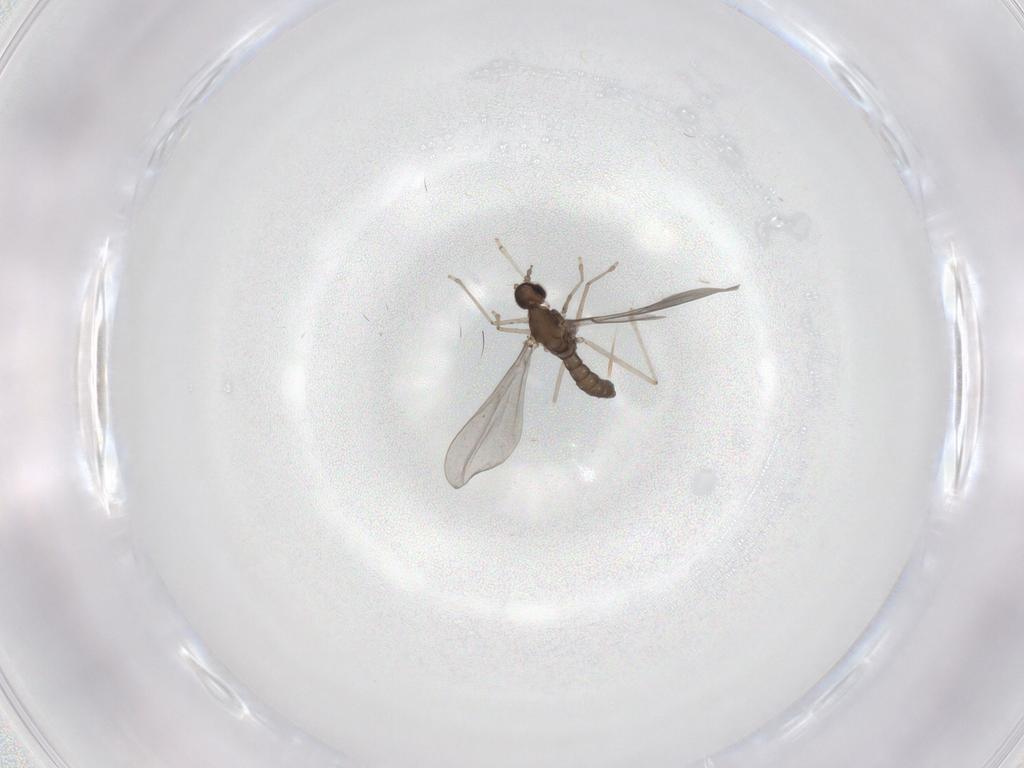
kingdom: Animalia
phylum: Arthropoda
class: Insecta
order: Diptera
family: Cecidomyiidae
